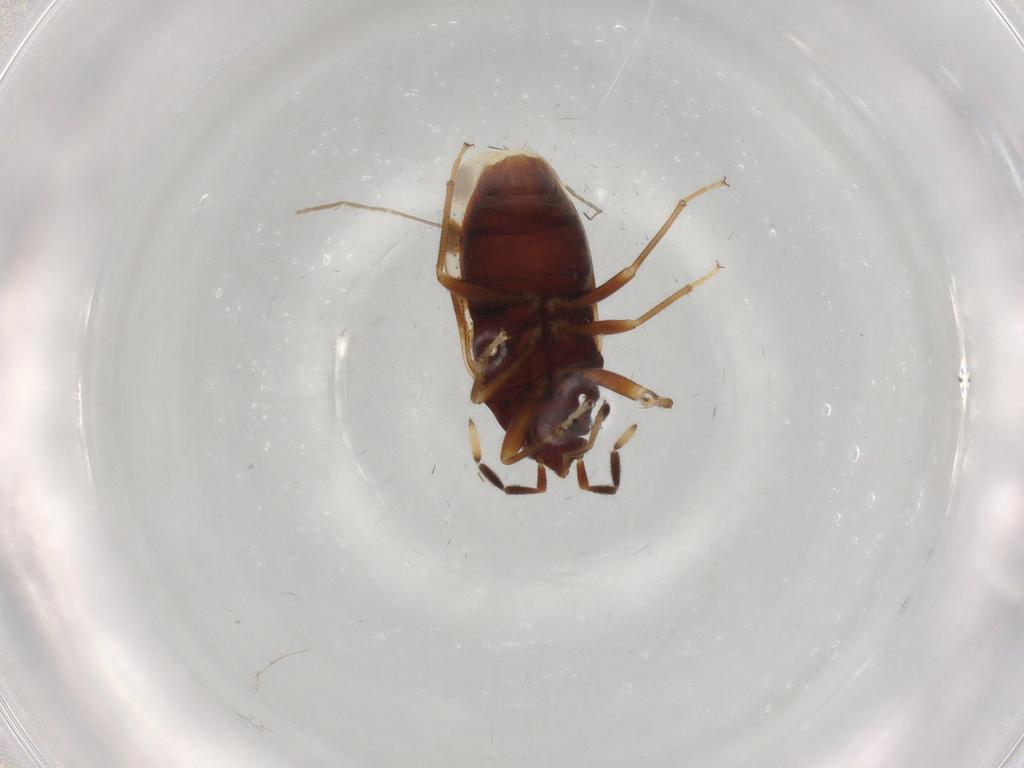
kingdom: Animalia
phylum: Arthropoda
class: Insecta
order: Hemiptera
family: Rhyparochromidae
